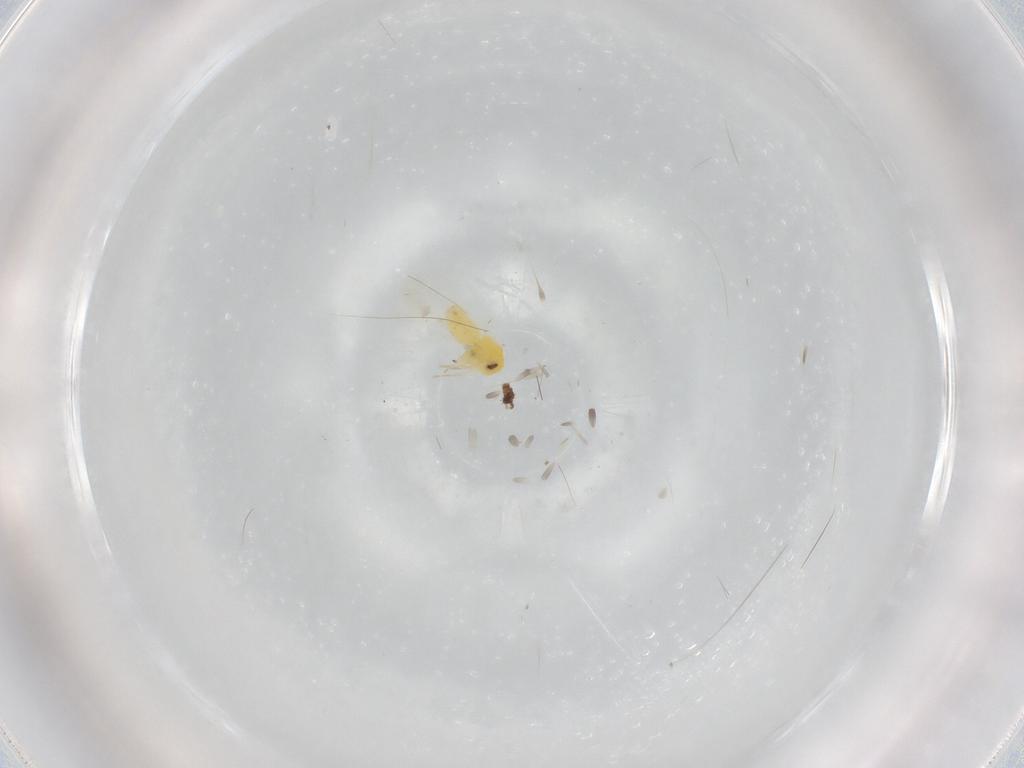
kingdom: Animalia
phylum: Arthropoda
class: Insecta
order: Hemiptera
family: Aleyrodidae
